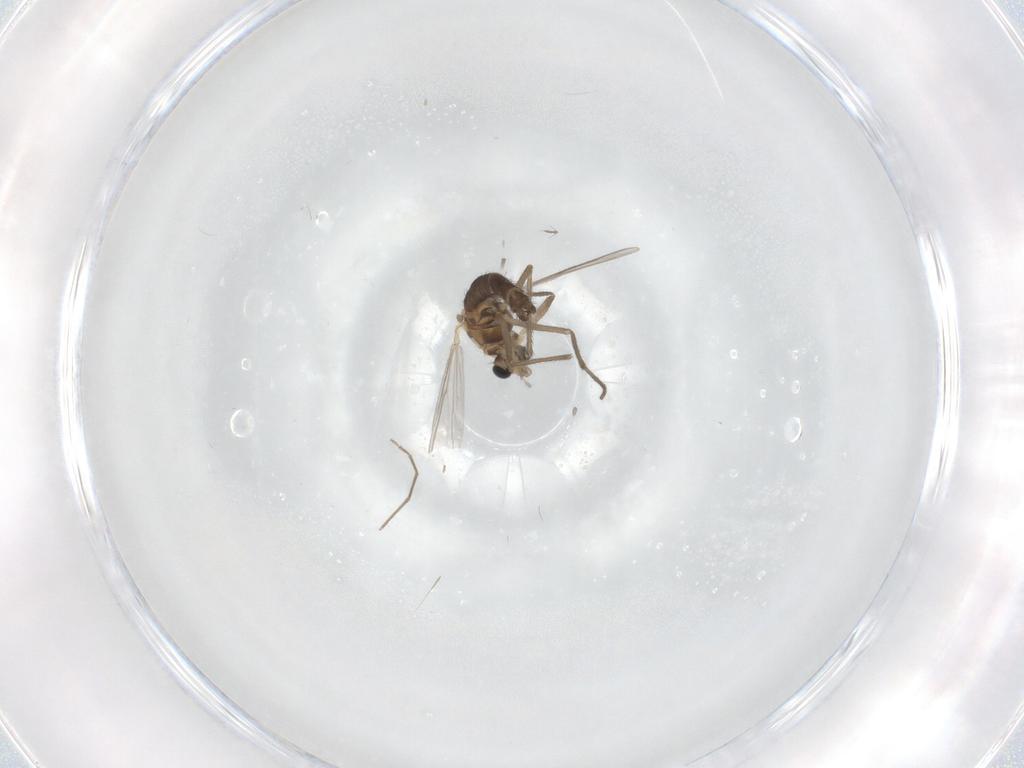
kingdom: Animalia
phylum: Arthropoda
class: Insecta
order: Diptera
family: Chironomidae
